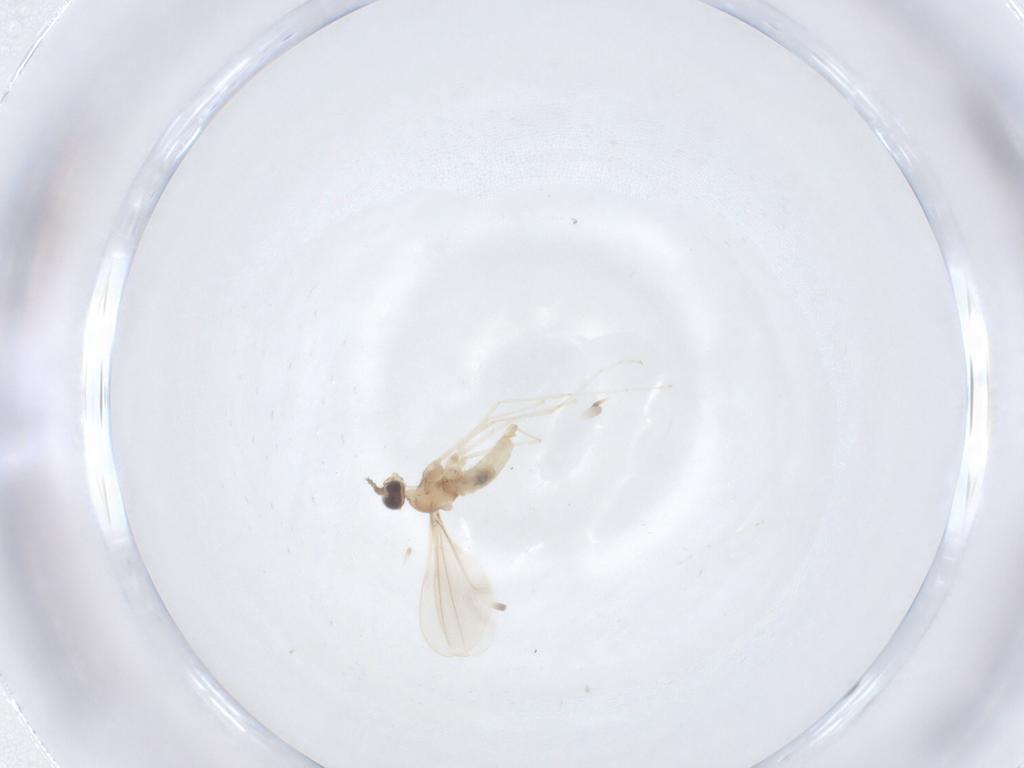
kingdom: Animalia
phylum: Arthropoda
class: Insecta
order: Diptera
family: Cecidomyiidae
